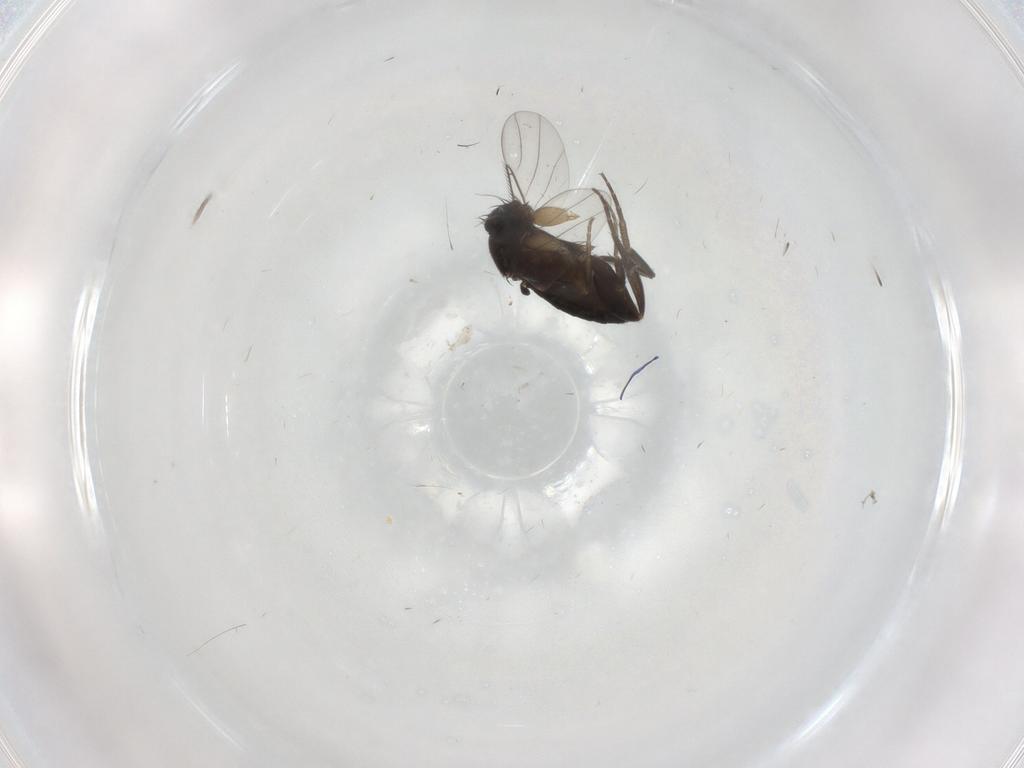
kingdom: Animalia
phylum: Arthropoda
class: Insecta
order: Diptera
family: Phoridae
